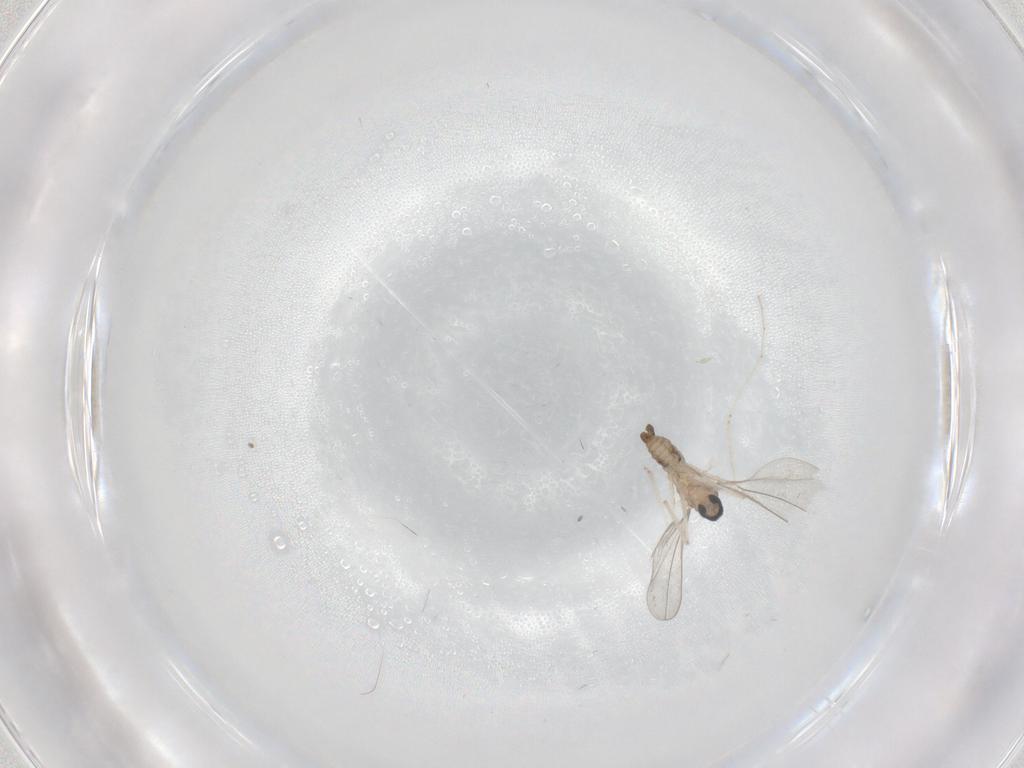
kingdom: Animalia
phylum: Arthropoda
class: Insecta
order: Diptera
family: Cecidomyiidae
